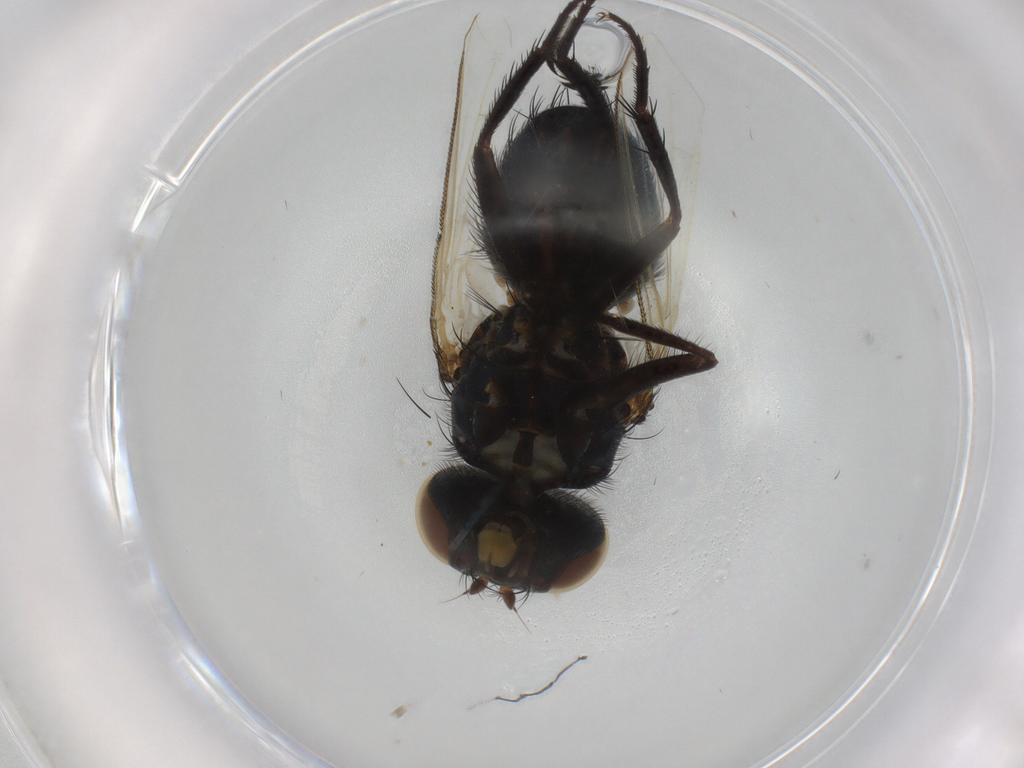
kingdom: Animalia
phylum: Arthropoda
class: Insecta
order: Diptera
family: Tachinidae
